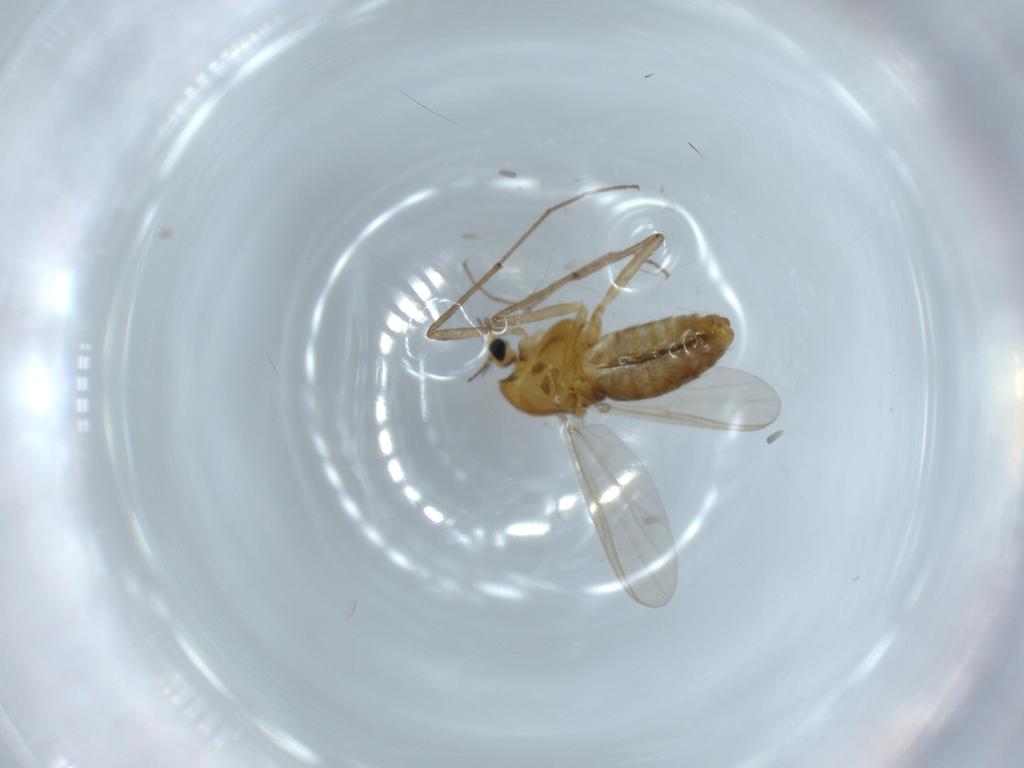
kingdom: Animalia
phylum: Arthropoda
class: Insecta
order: Diptera
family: Chironomidae
